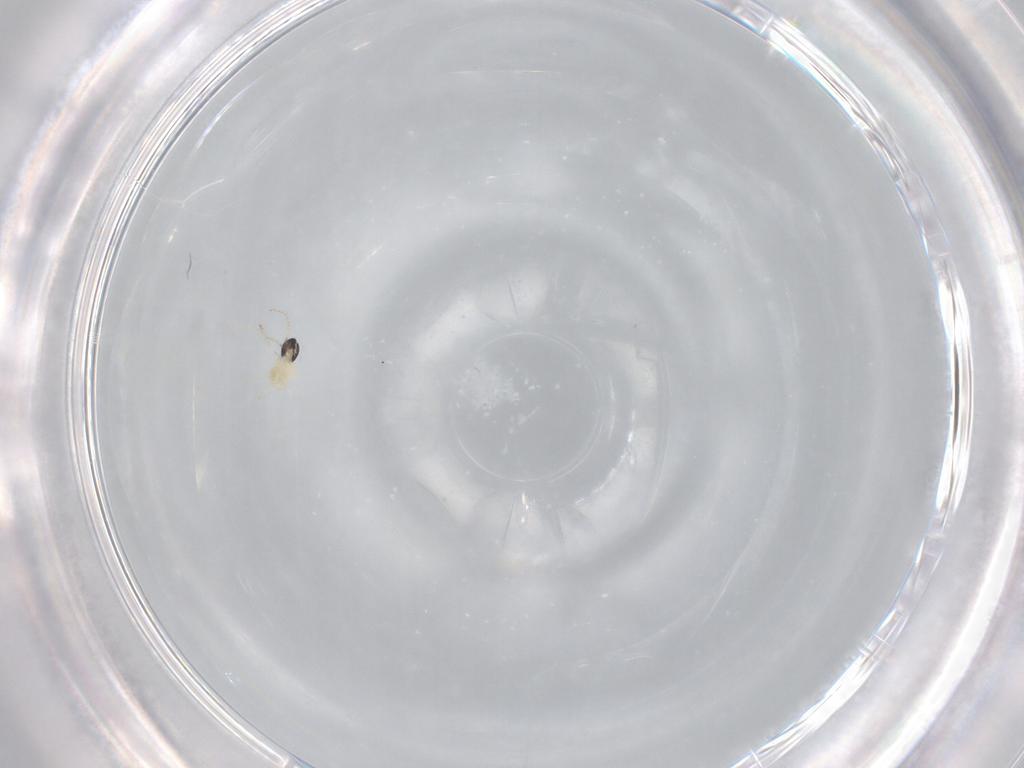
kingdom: Animalia
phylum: Arthropoda
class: Insecta
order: Diptera
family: Cecidomyiidae
